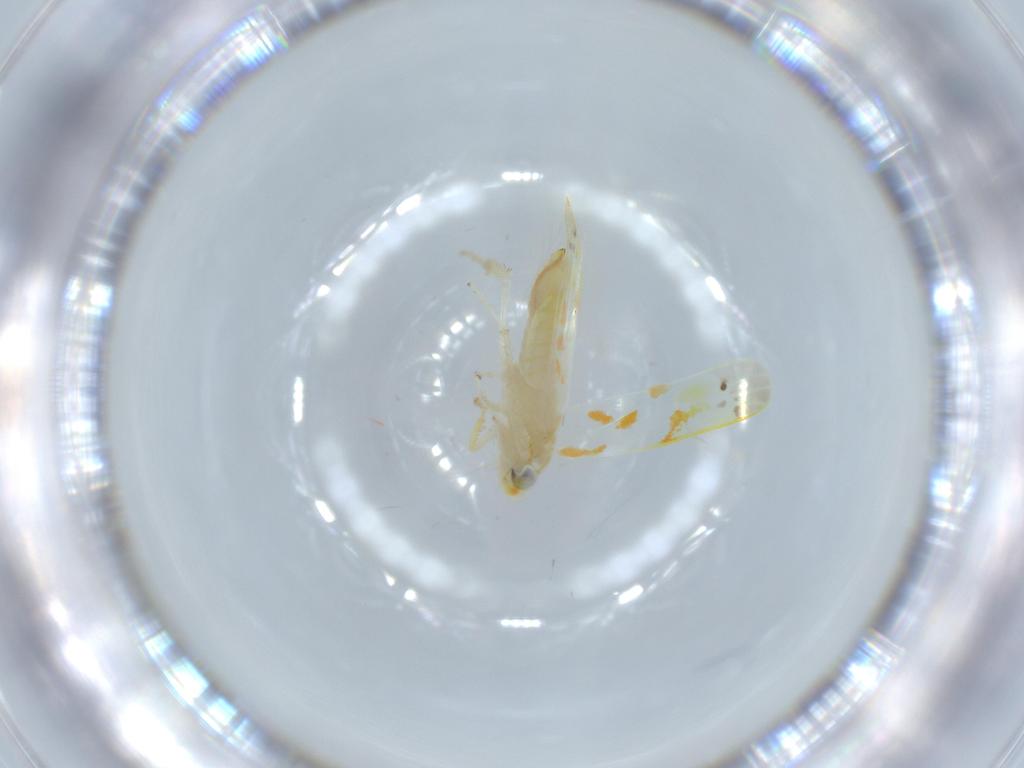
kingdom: Animalia
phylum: Arthropoda
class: Insecta
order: Hemiptera
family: Cicadellidae
